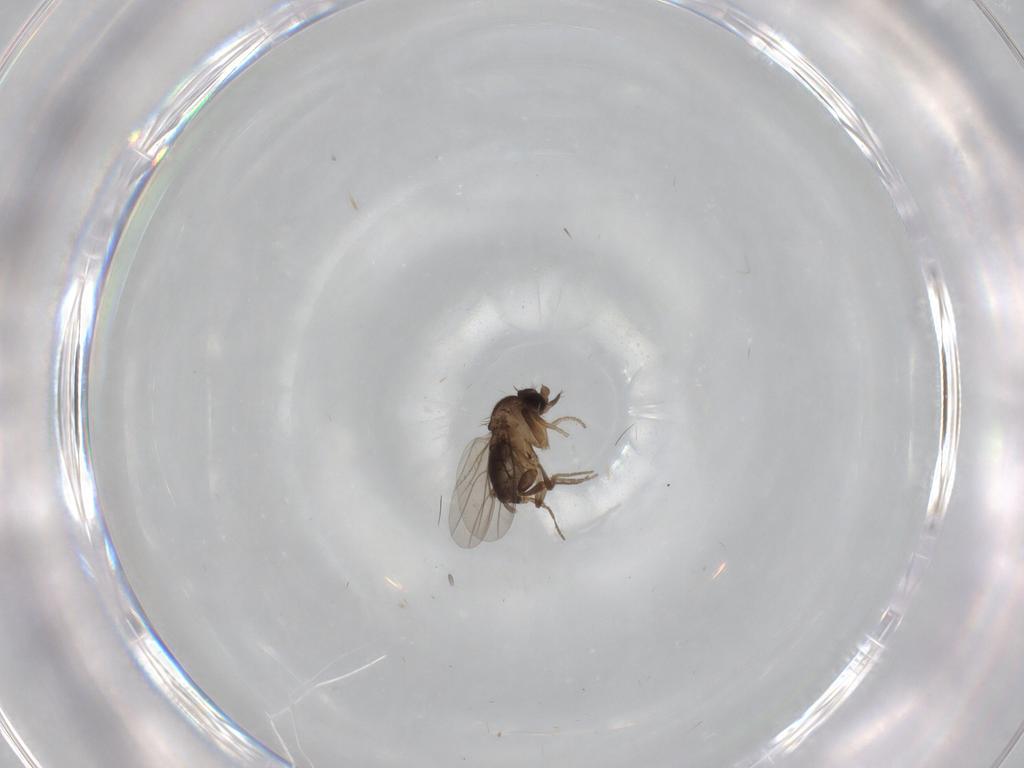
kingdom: Animalia
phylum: Arthropoda
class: Insecta
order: Diptera
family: Phoridae
